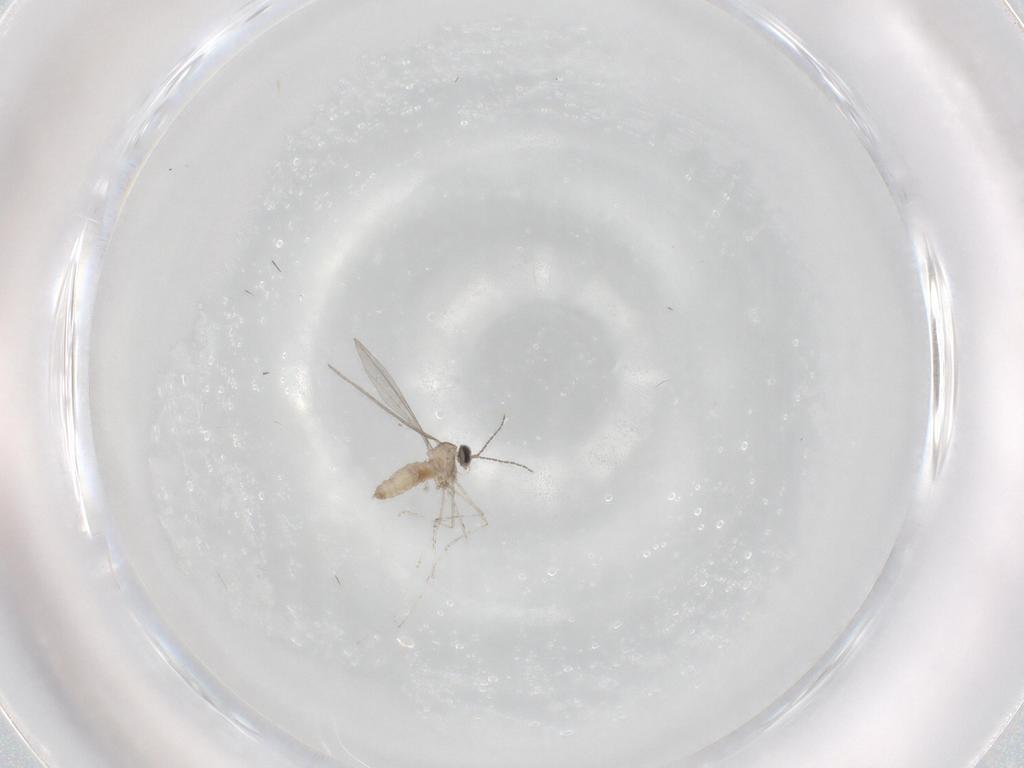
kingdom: Animalia
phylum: Arthropoda
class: Insecta
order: Diptera
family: Cecidomyiidae
